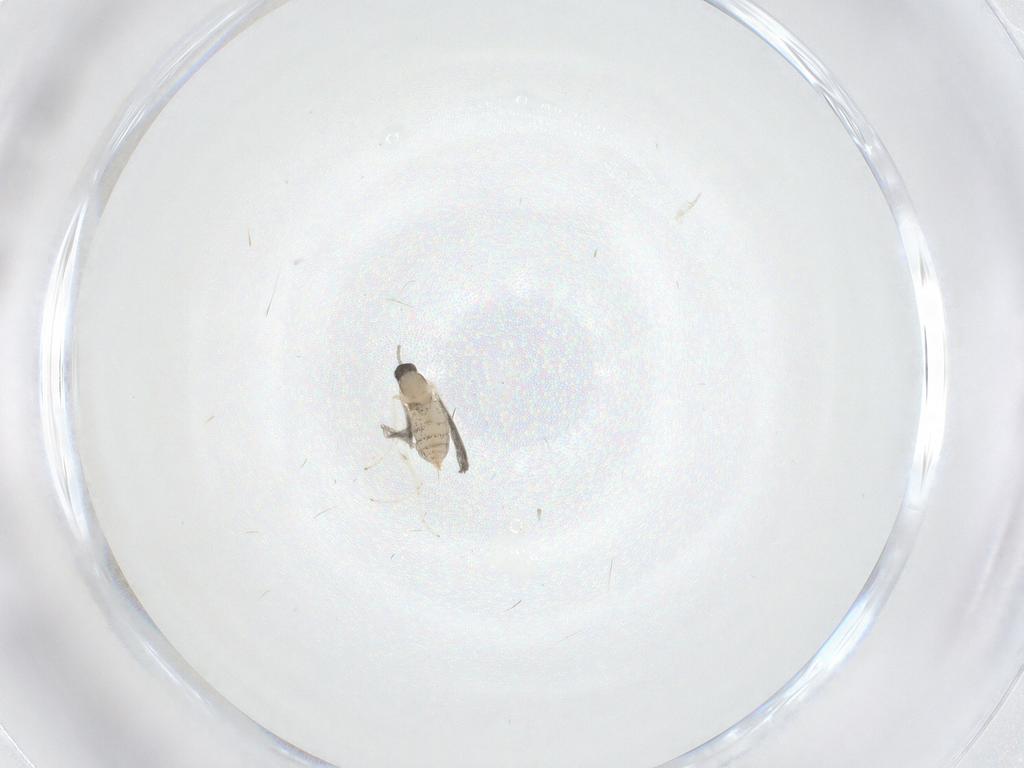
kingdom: Animalia
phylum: Arthropoda
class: Insecta
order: Diptera
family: Cecidomyiidae
